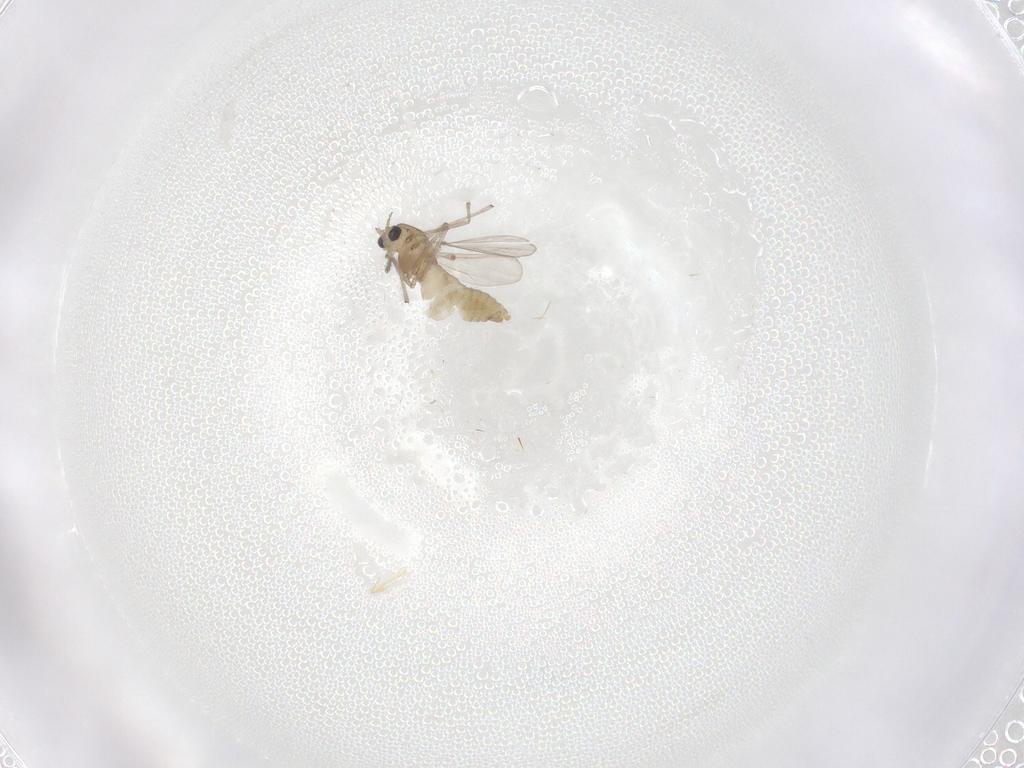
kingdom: Animalia
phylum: Arthropoda
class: Insecta
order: Diptera
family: Chironomidae
